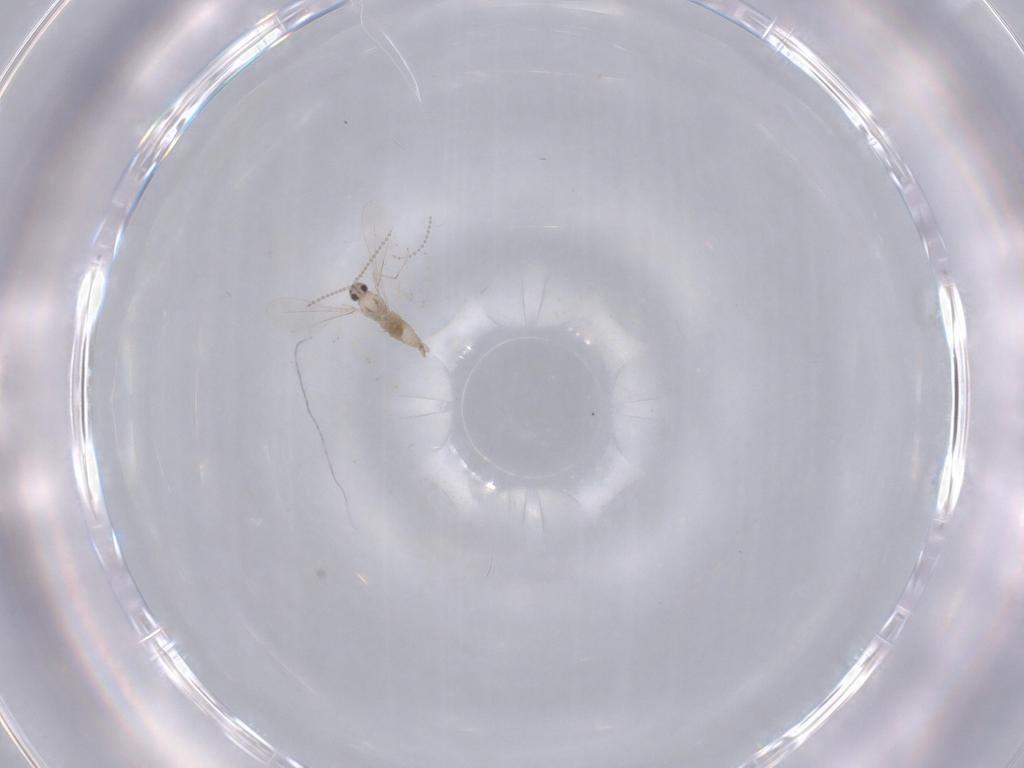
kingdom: Animalia
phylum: Arthropoda
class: Insecta
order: Diptera
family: Cecidomyiidae
